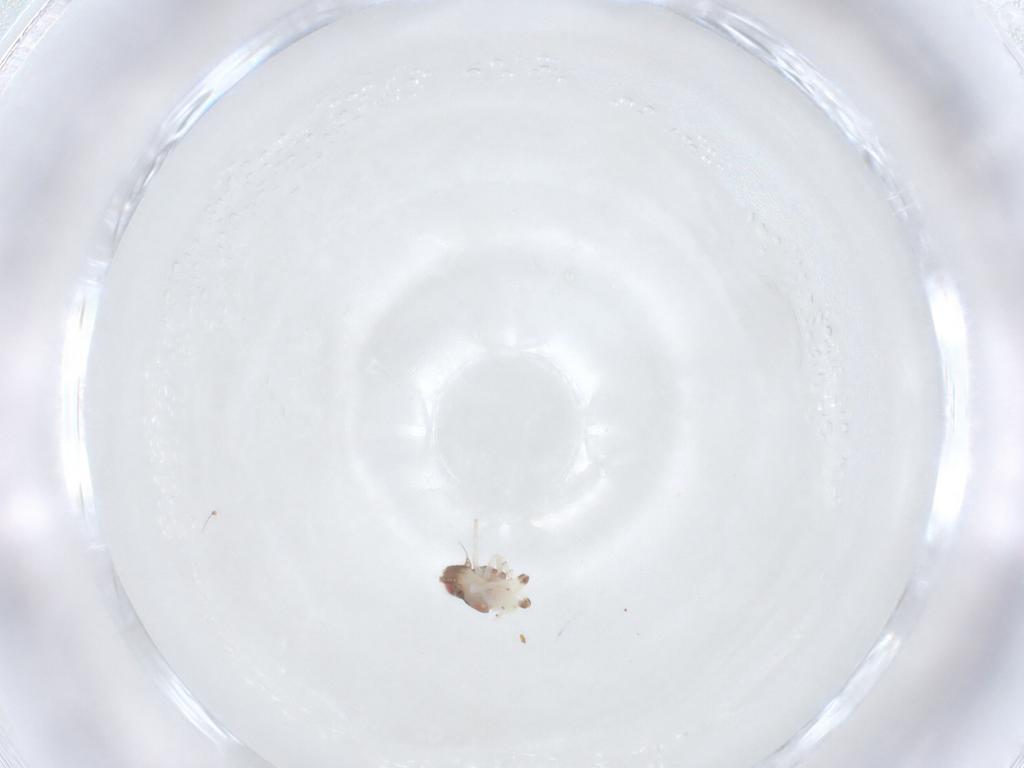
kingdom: Animalia
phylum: Arthropoda
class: Insecta
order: Hemiptera
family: Nogodinidae
